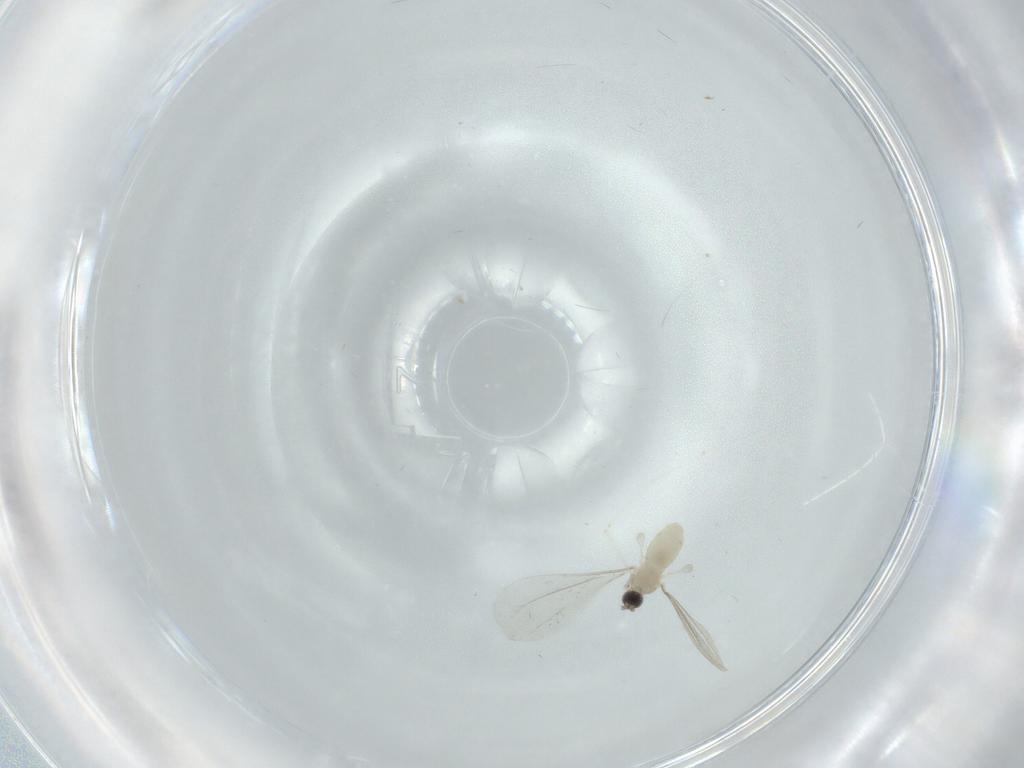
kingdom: Animalia
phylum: Arthropoda
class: Insecta
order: Diptera
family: Cecidomyiidae
